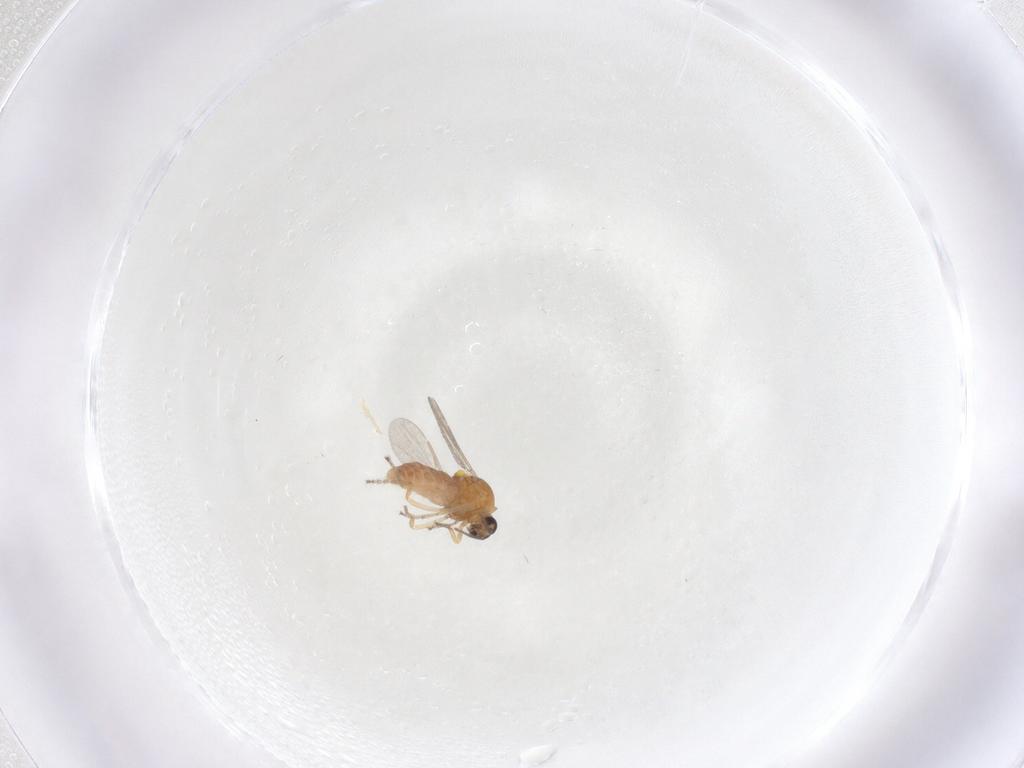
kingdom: Animalia
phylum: Arthropoda
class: Insecta
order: Diptera
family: Ceratopogonidae
